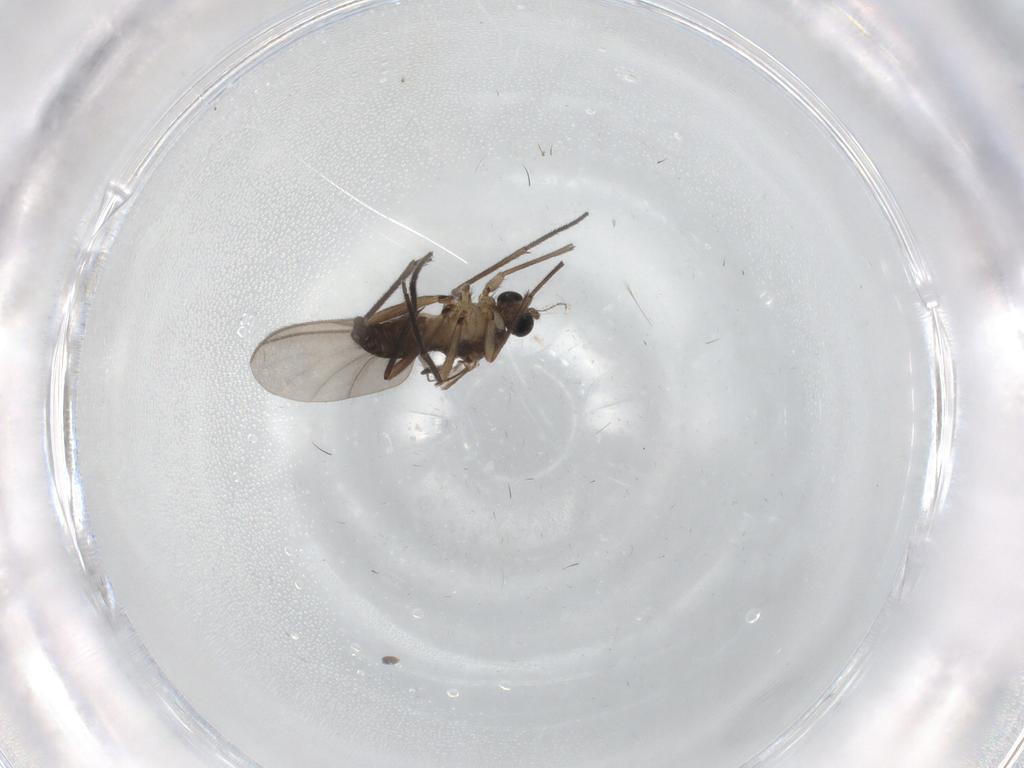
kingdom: Animalia
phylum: Arthropoda
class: Insecta
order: Diptera
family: Sciaridae
